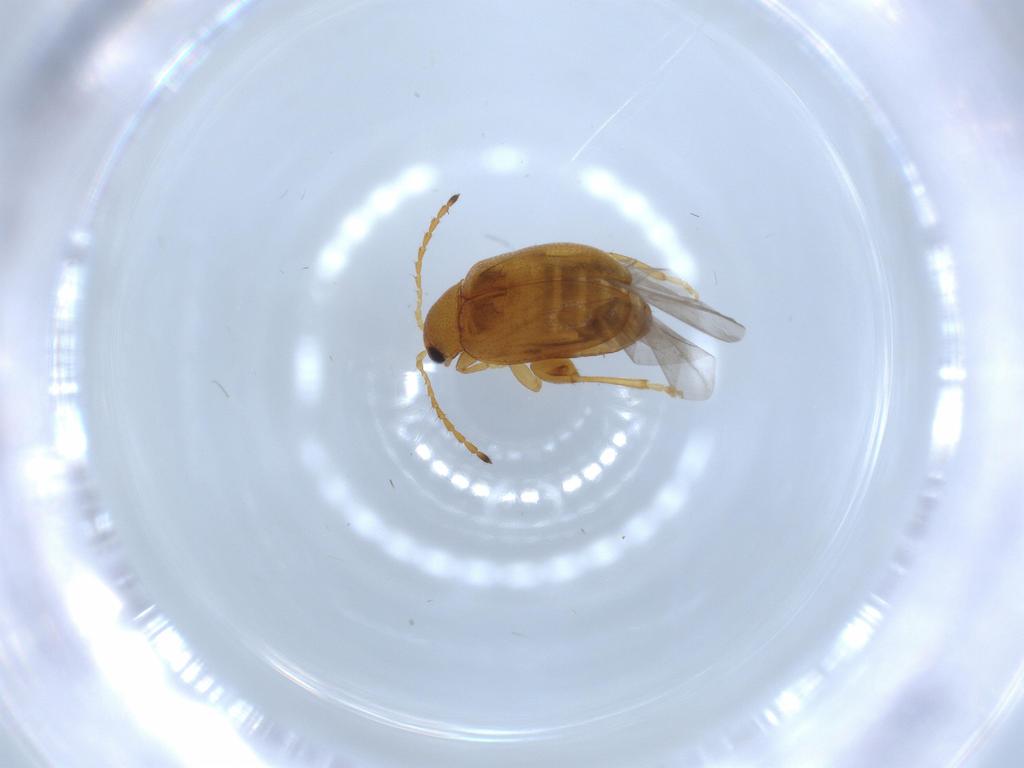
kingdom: Animalia
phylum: Arthropoda
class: Insecta
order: Coleoptera
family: Chrysomelidae
